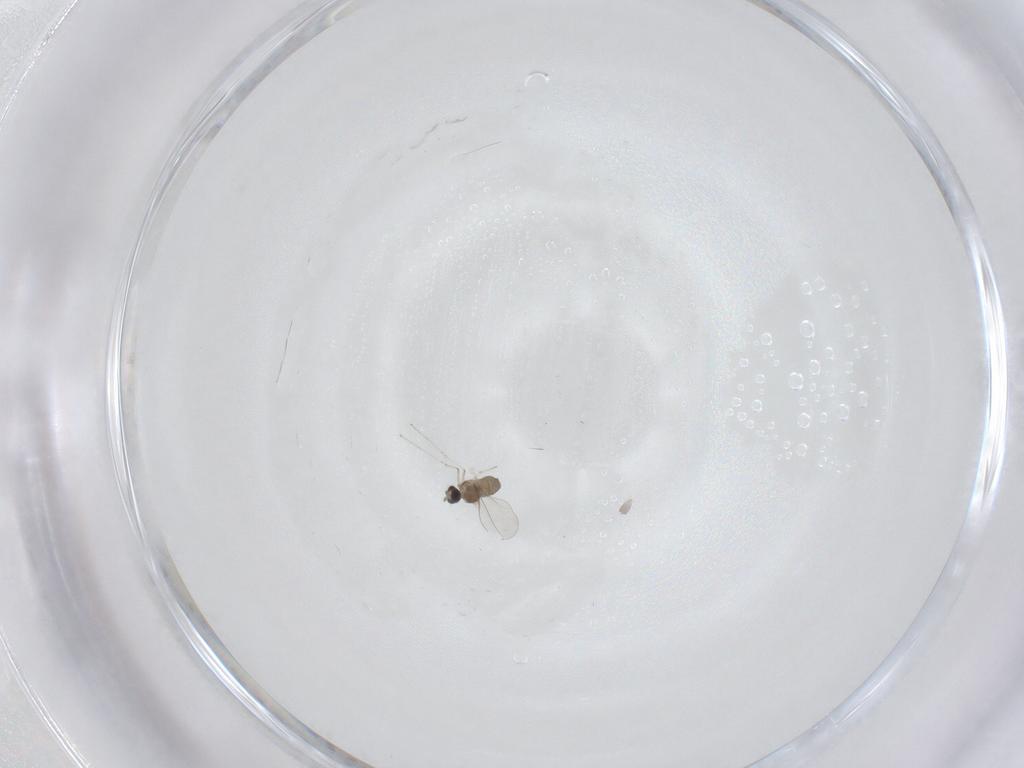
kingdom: Animalia
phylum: Arthropoda
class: Insecta
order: Diptera
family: Cecidomyiidae
